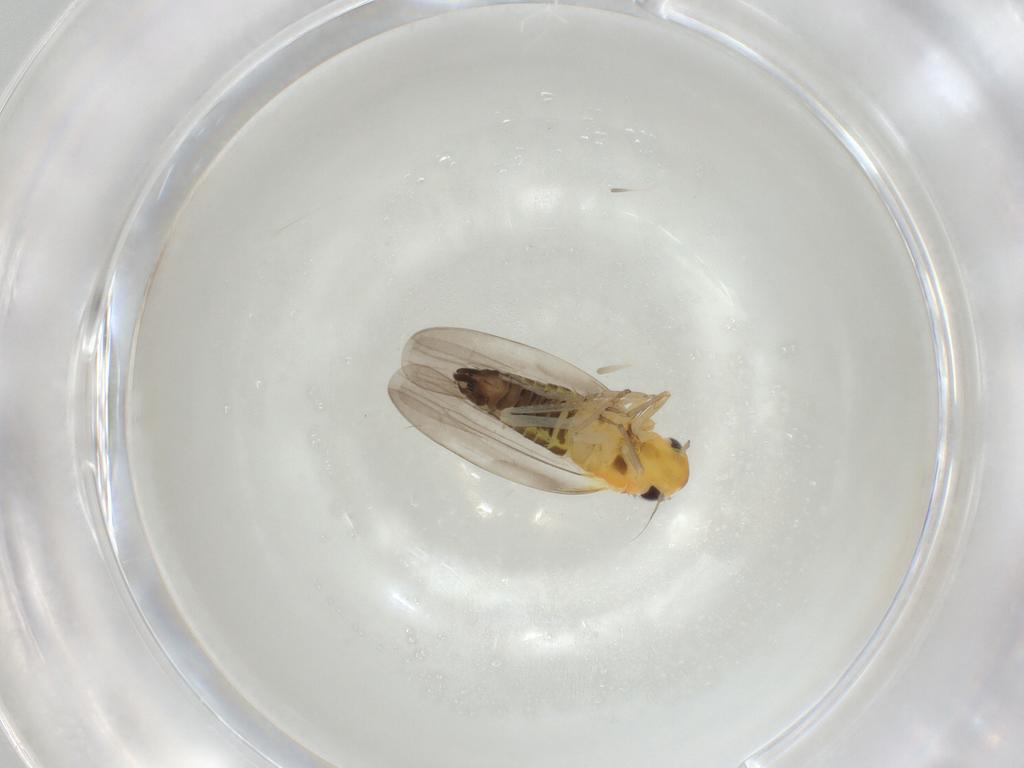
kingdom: Animalia
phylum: Arthropoda
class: Insecta
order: Hemiptera
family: Cicadellidae
